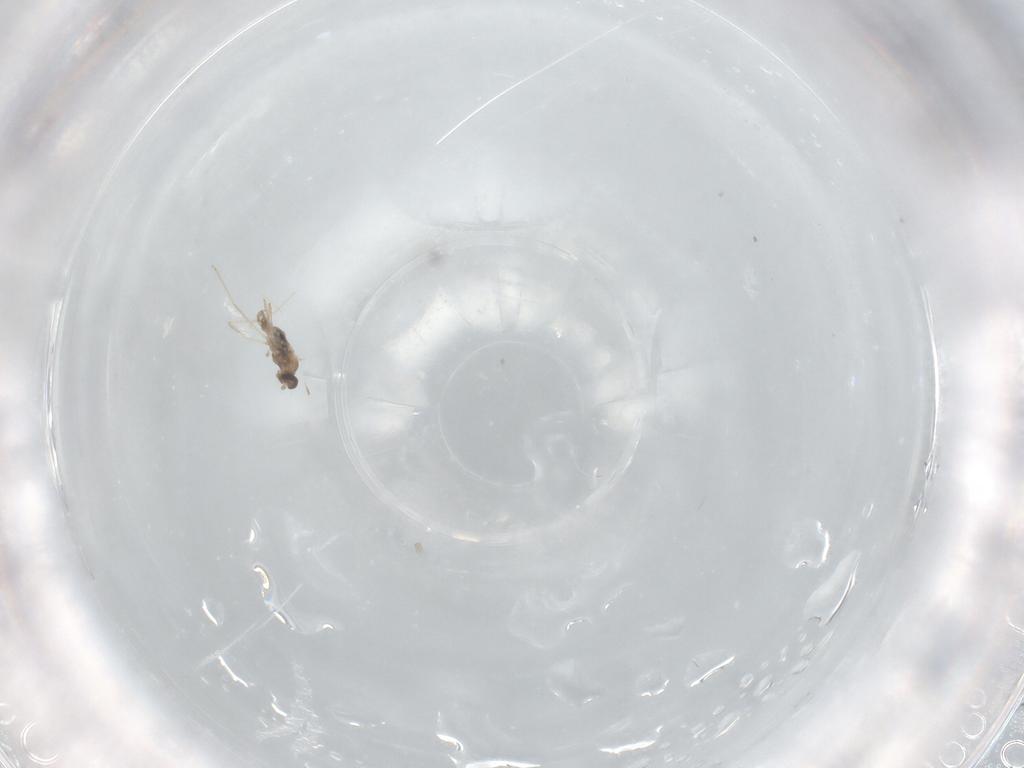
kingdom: Animalia
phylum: Arthropoda
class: Insecta
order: Diptera
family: Cecidomyiidae
